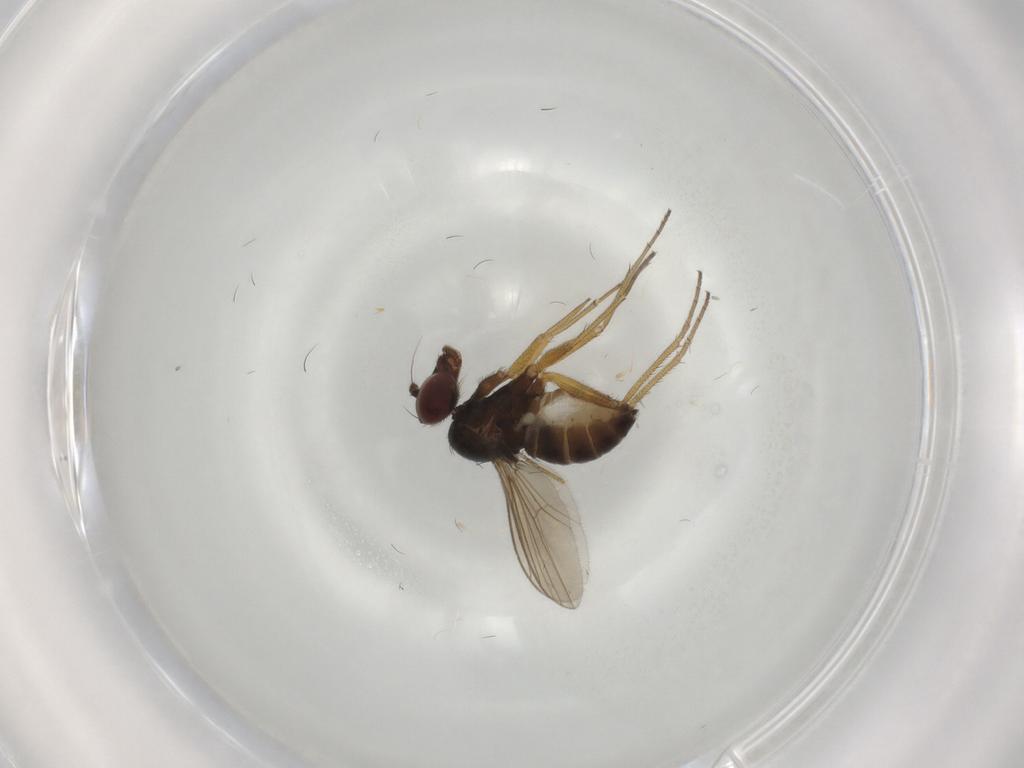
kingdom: Animalia
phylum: Arthropoda
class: Insecta
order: Diptera
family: Dolichopodidae
